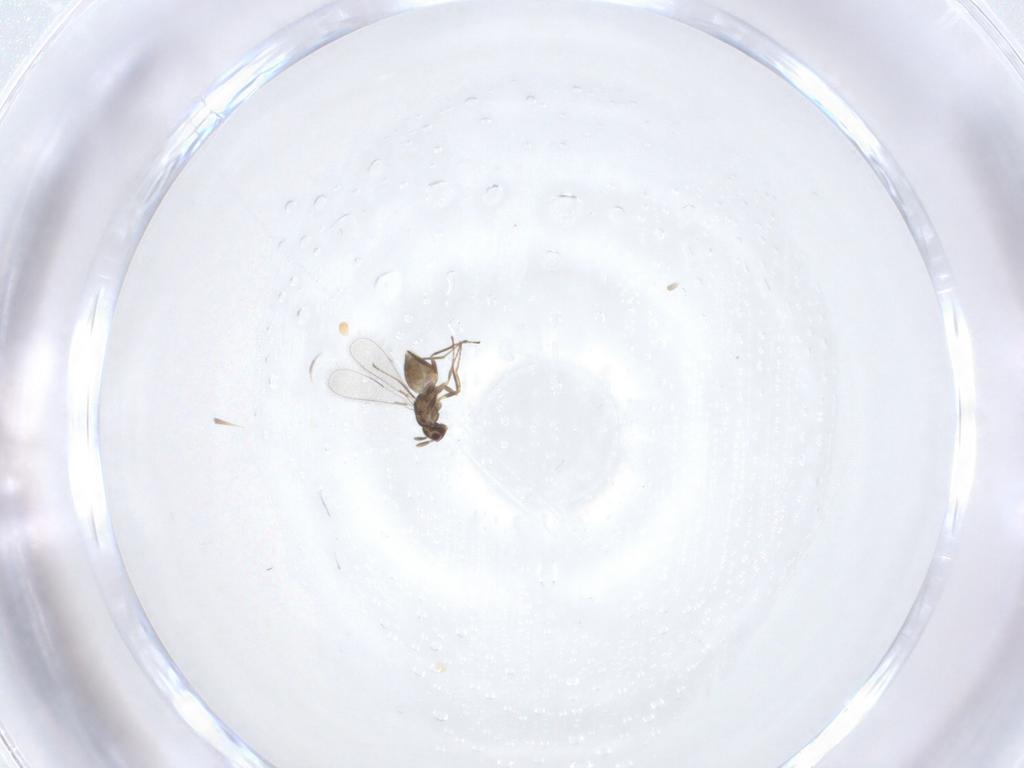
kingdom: Animalia
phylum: Arthropoda
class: Insecta
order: Hymenoptera
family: Mymaridae
